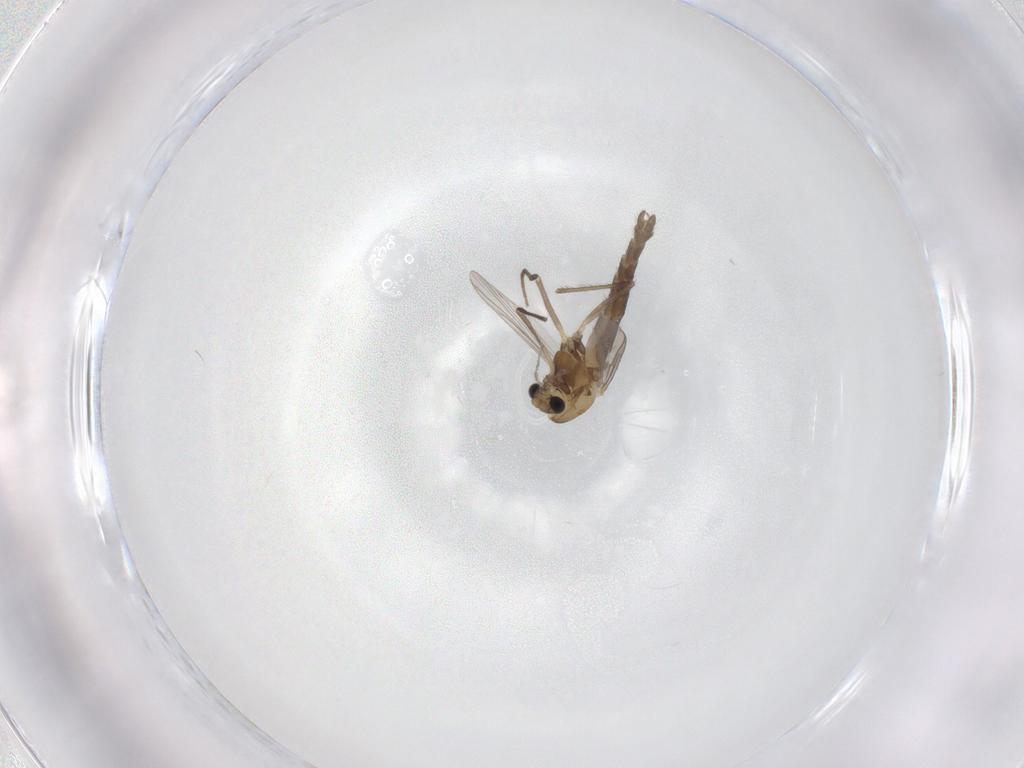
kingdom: Animalia
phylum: Arthropoda
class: Insecta
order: Diptera
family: Chironomidae
